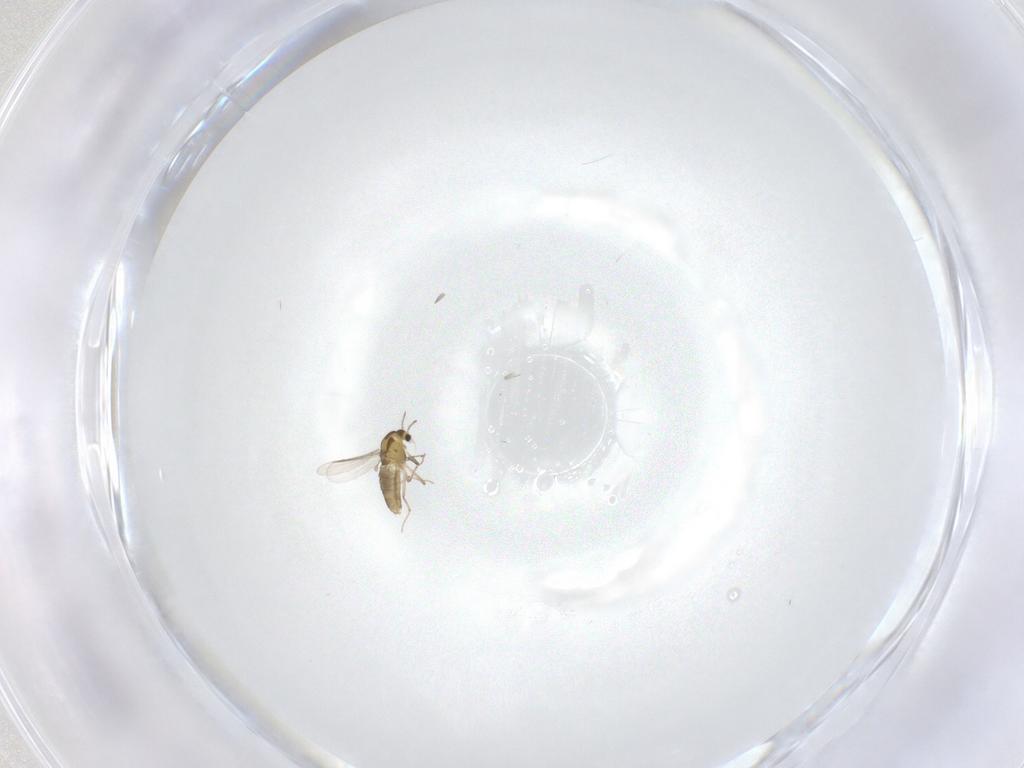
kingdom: Animalia
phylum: Arthropoda
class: Insecta
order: Diptera
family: Chironomidae
